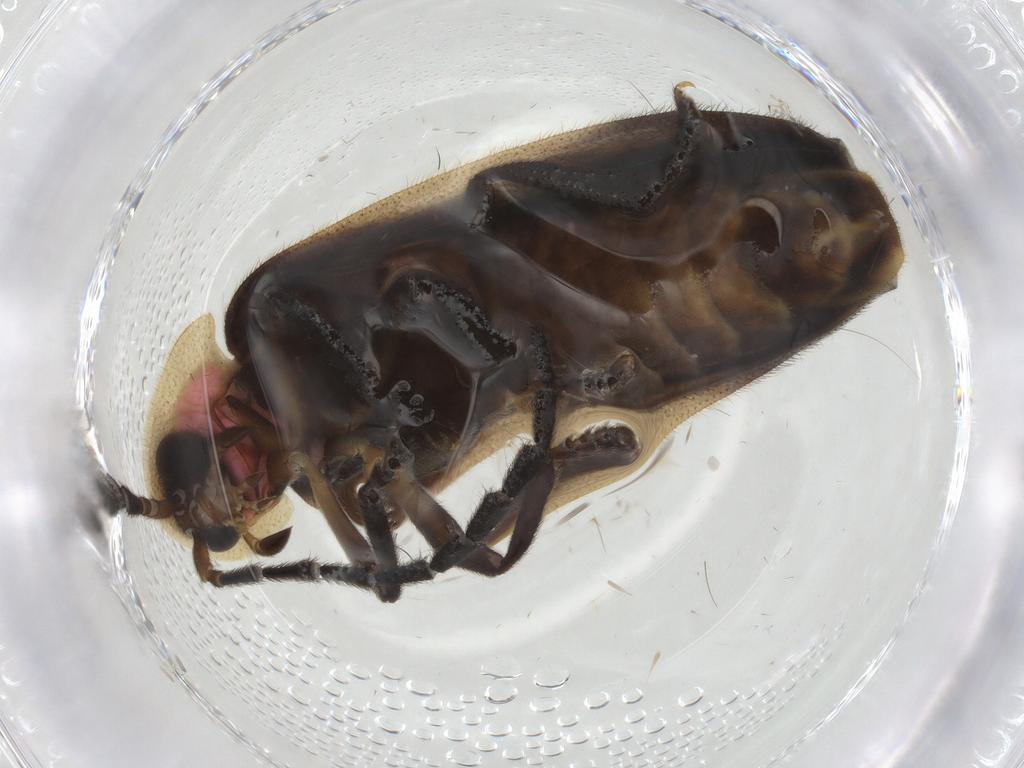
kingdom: Animalia
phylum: Arthropoda
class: Insecta
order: Coleoptera
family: Lampyridae
